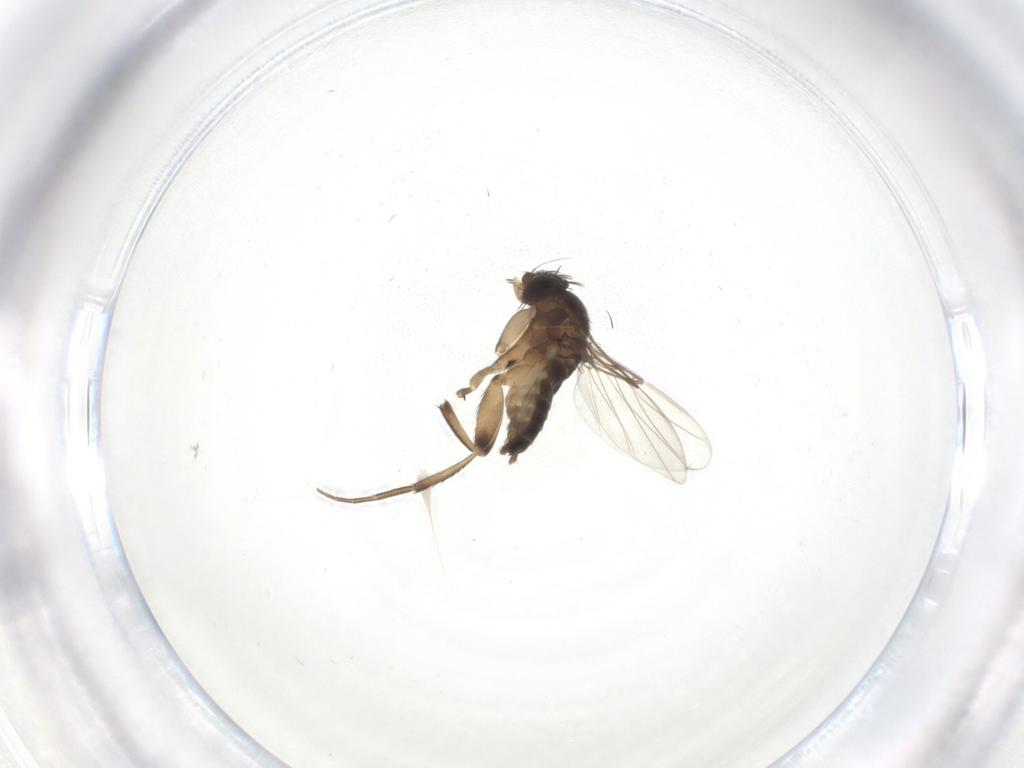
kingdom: Animalia
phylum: Arthropoda
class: Insecta
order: Diptera
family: Phoridae
